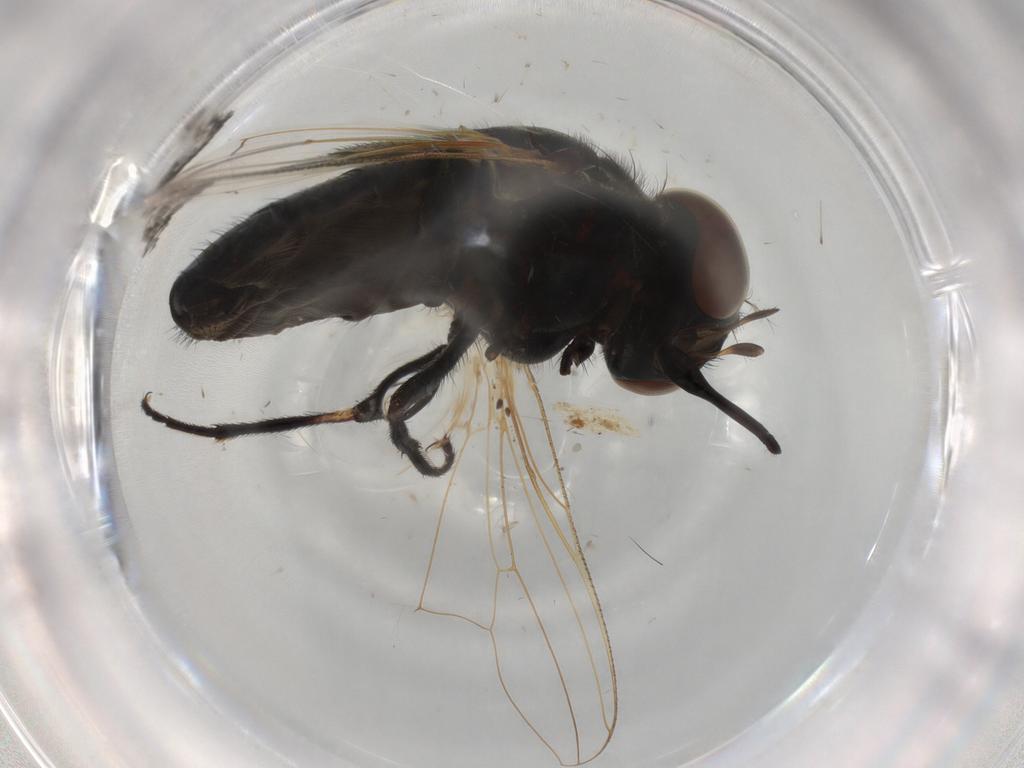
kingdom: Animalia
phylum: Arthropoda
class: Insecta
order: Diptera
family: Muscidae
